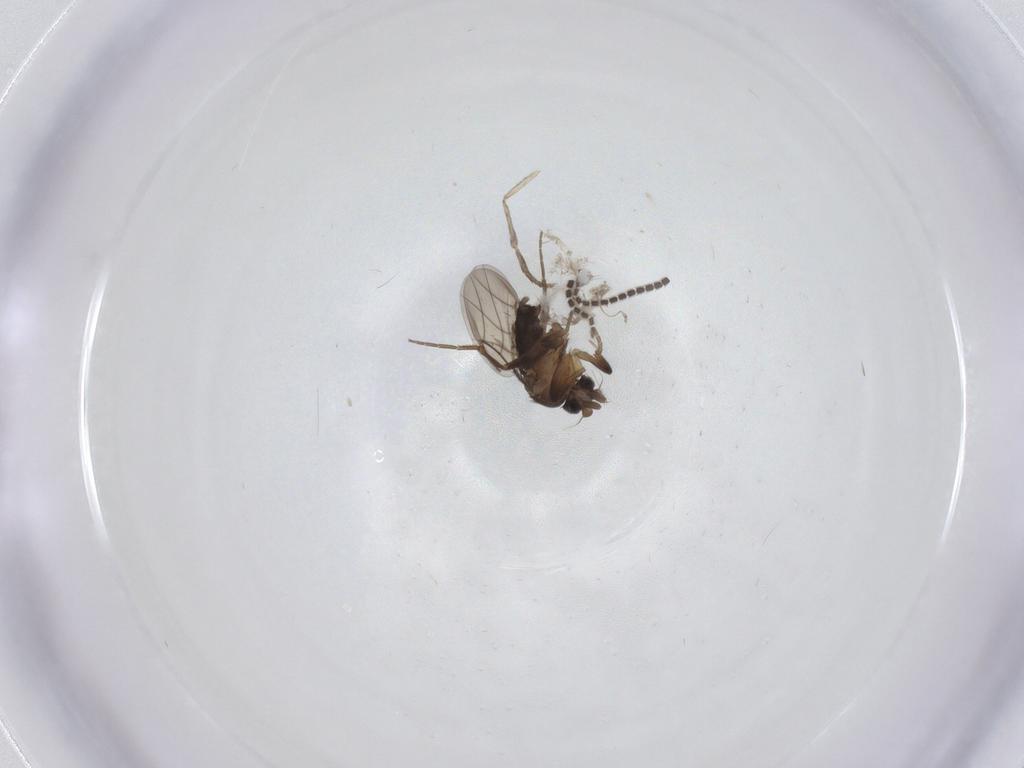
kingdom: Animalia
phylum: Arthropoda
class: Insecta
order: Diptera
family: Sciaridae
